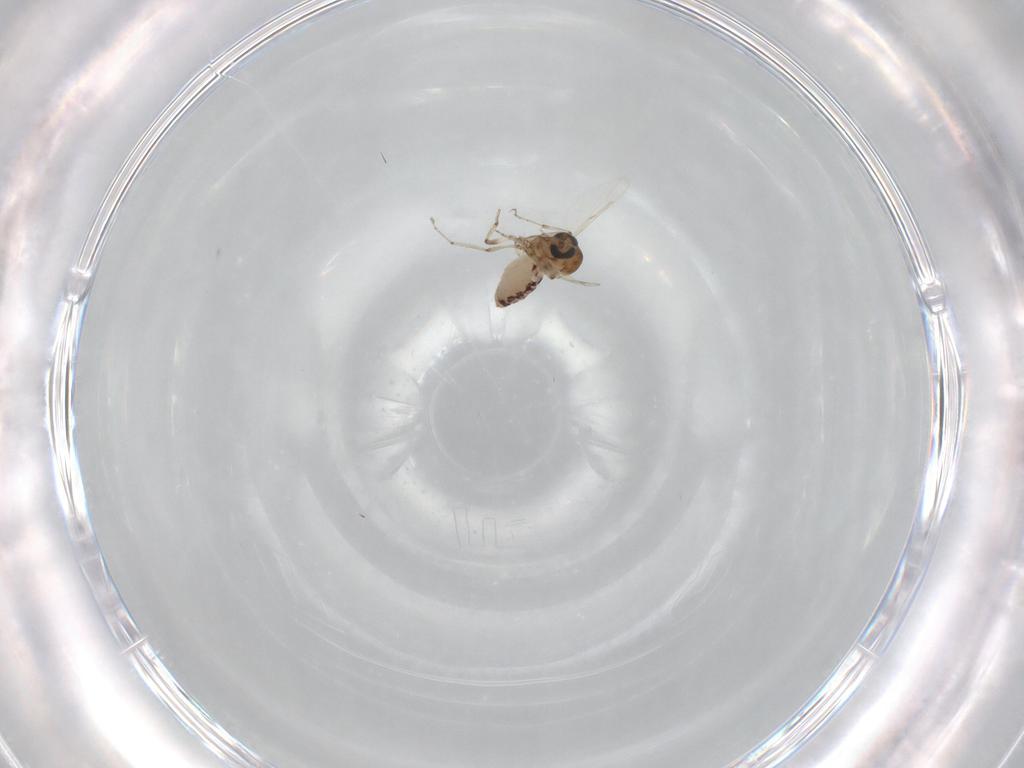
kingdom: Animalia
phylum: Arthropoda
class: Insecta
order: Diptera
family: Ceratopogonidae
